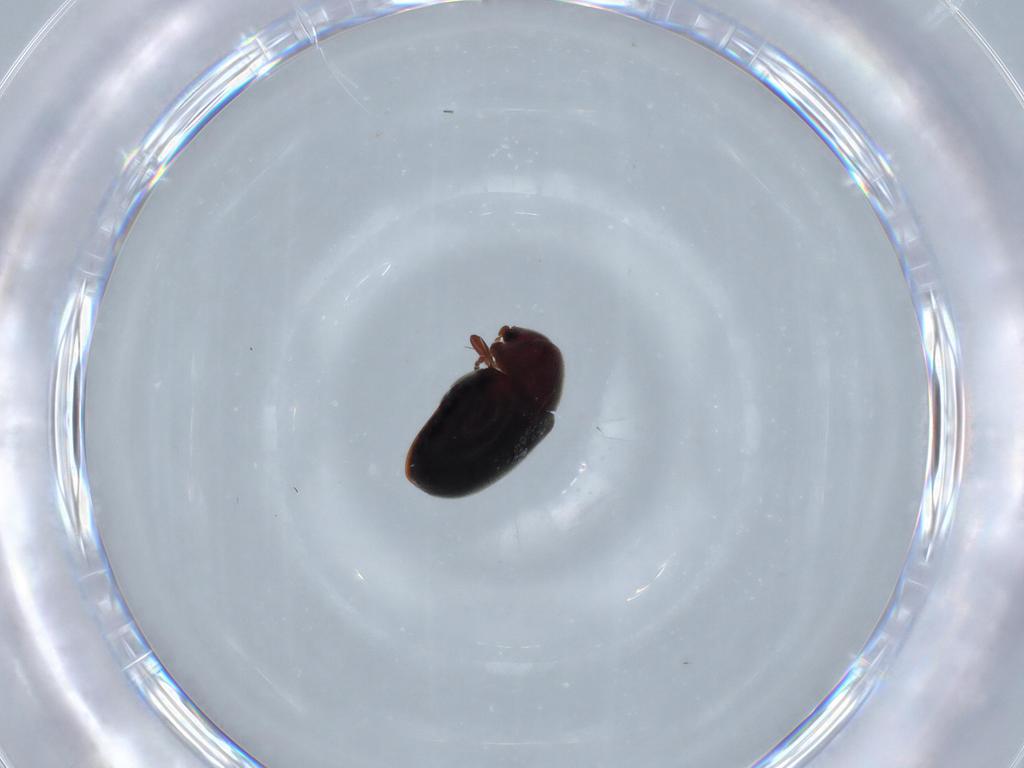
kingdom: Animalia
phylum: Arthropoda
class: Insecta
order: Coleoptera
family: Ptinidae
